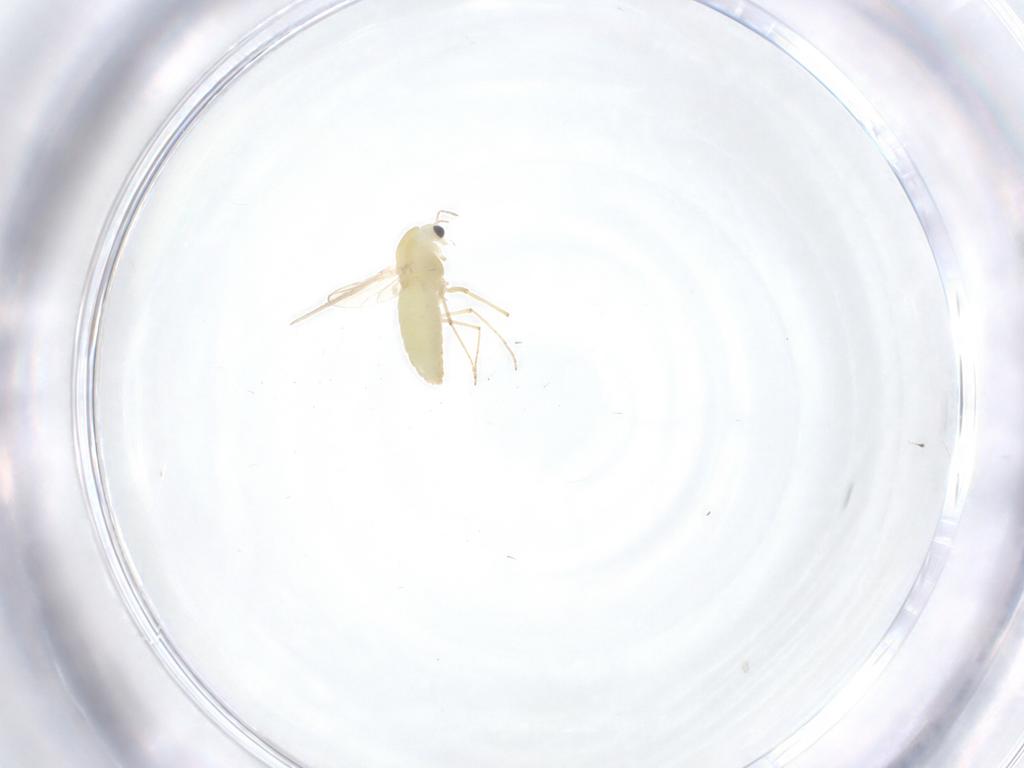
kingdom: Animalia
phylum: Arthropoda
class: Insecta
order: Diptera
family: Chironomidae
